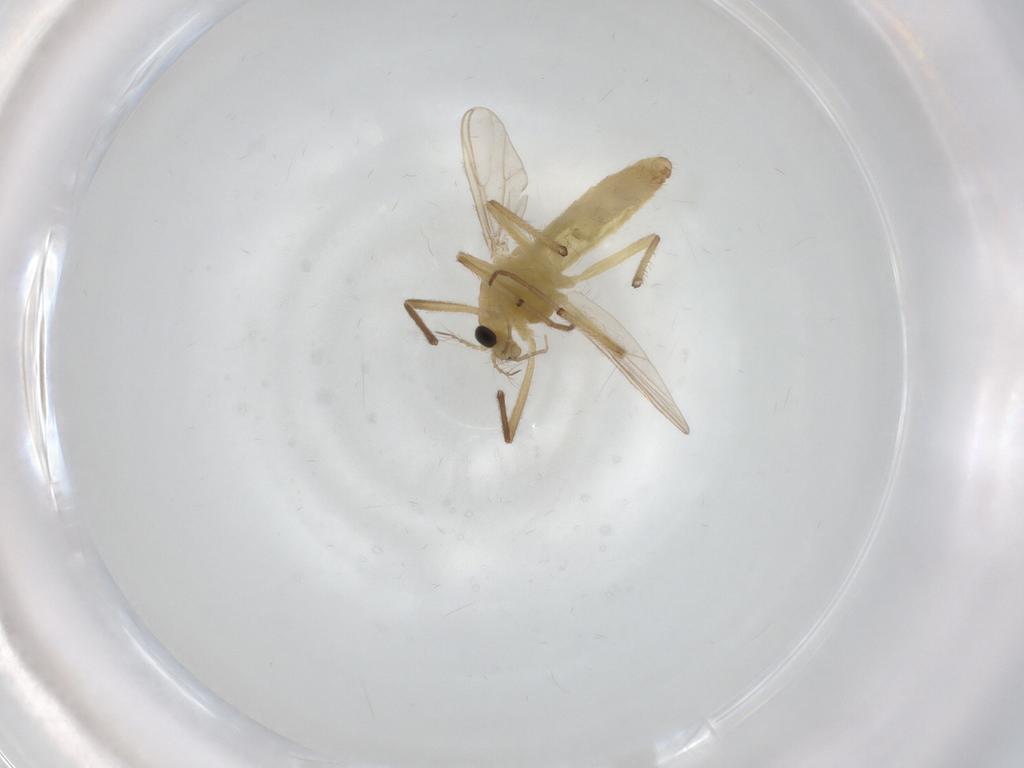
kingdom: Animalia
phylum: Arthropoda
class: Insecta
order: Diptera
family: Chironomidae
